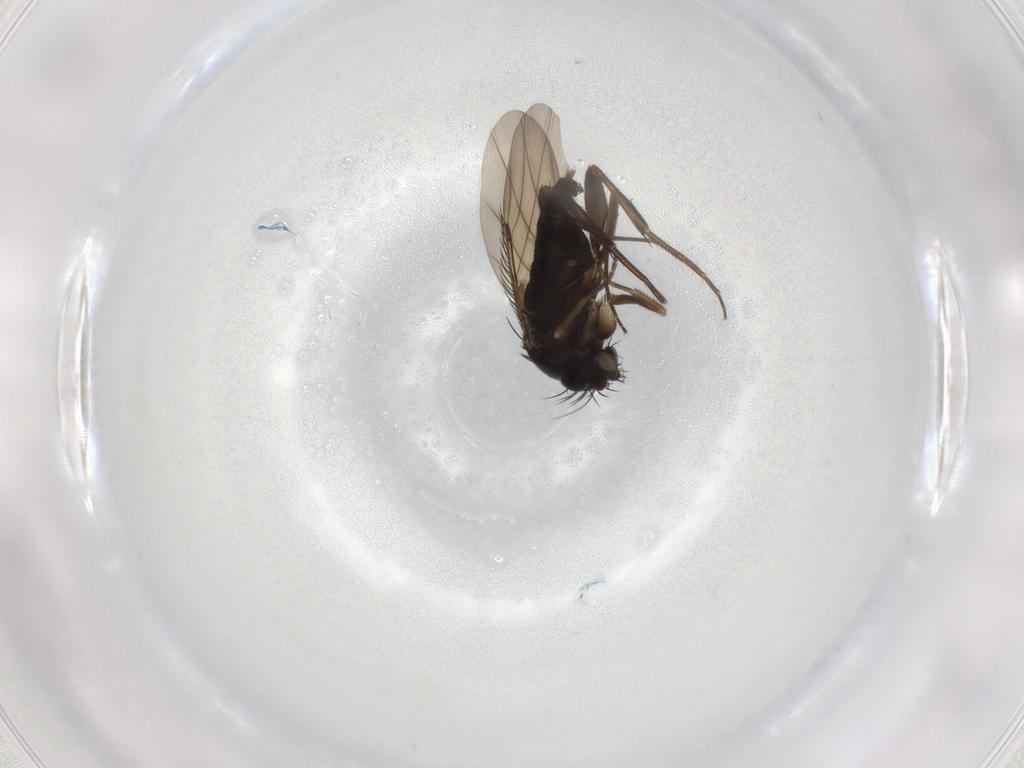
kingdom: Animalia
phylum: Arthropoda
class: Insecta
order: Diptera
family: Phoridae
